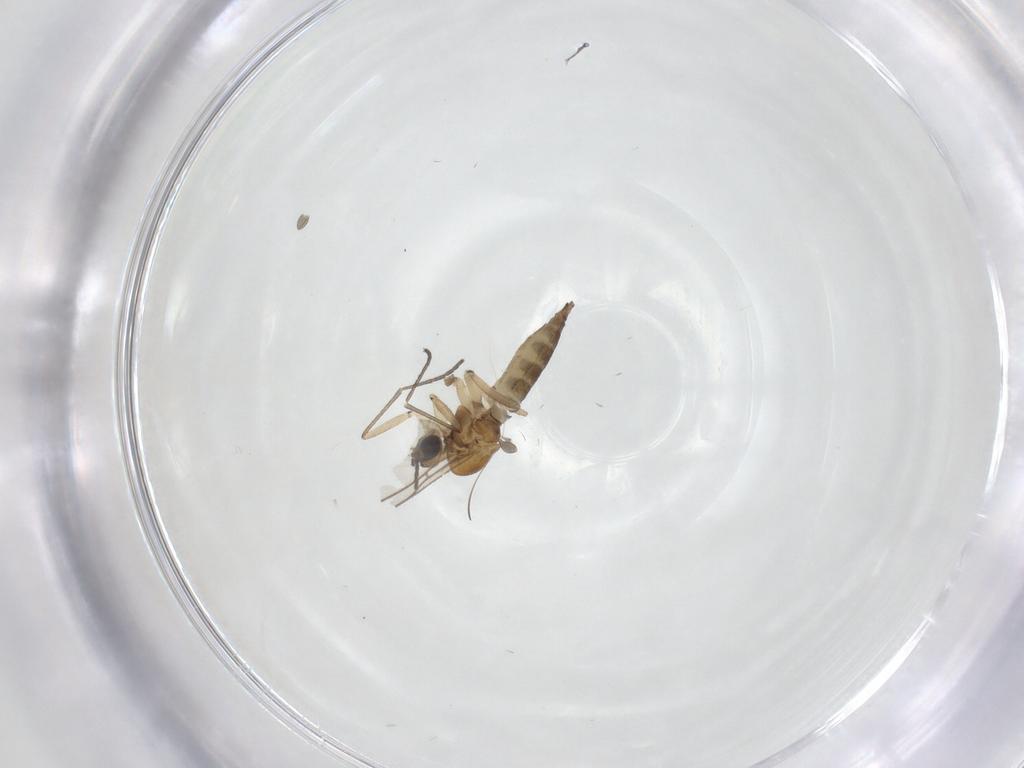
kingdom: Animalia
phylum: Arthropoda
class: Insecta
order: Diptera
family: Sciaridae
